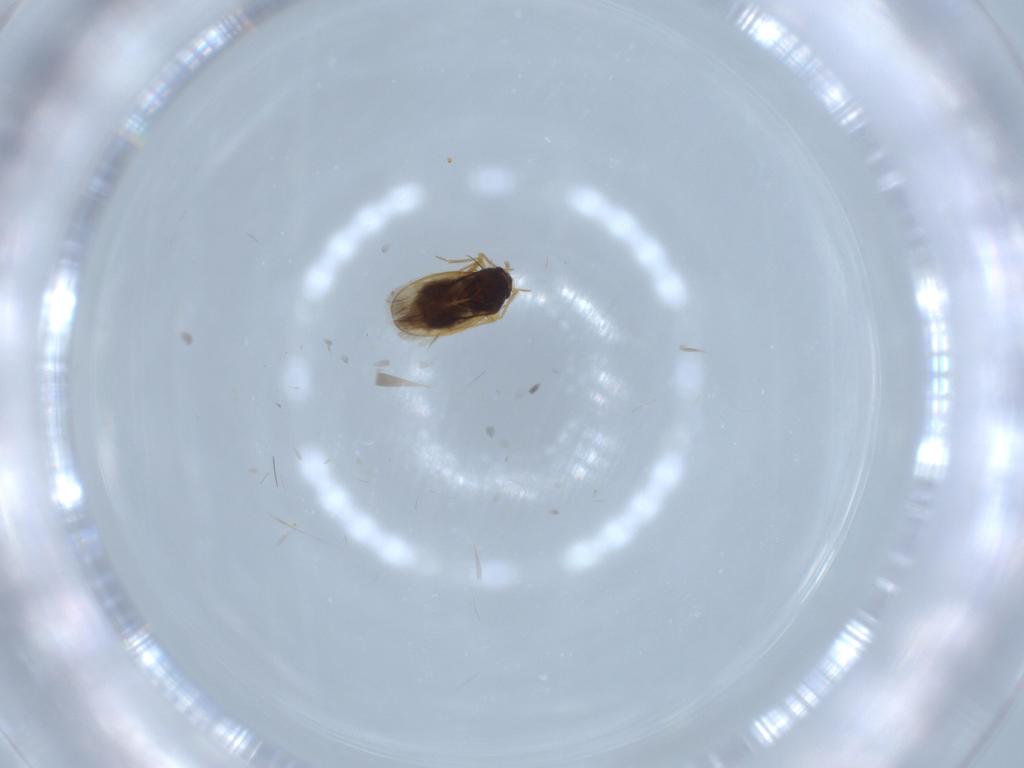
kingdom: Animalia
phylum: Arthropoda
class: Insecta
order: Hemiptera
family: Schizopteridae
